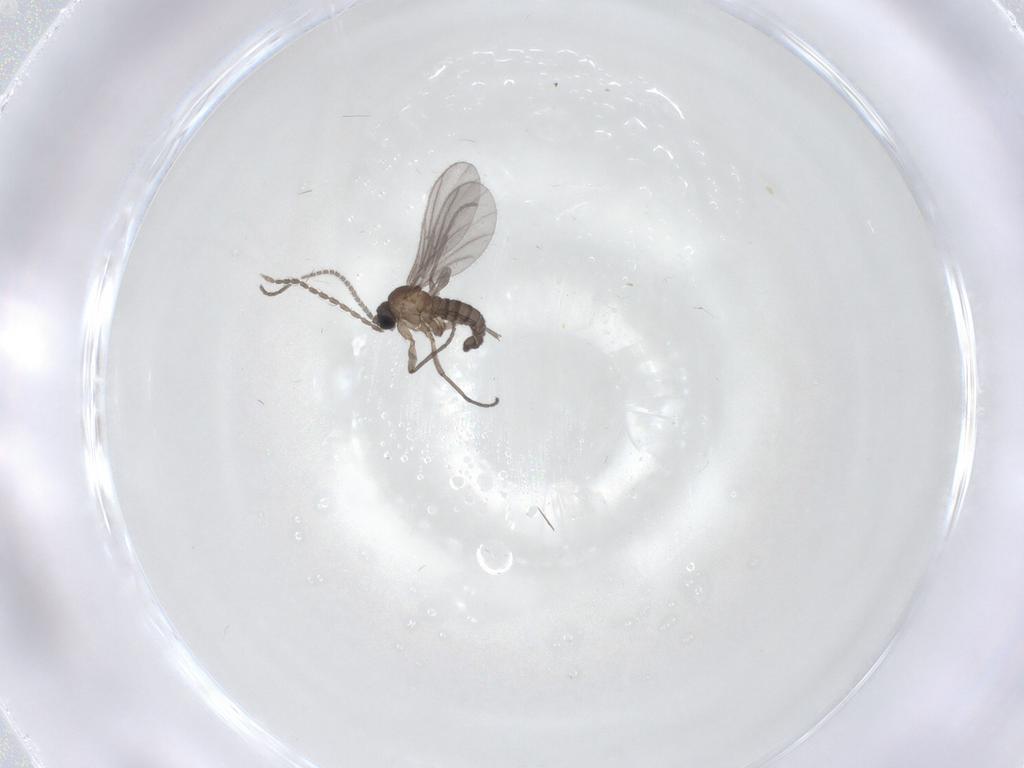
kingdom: Animalia
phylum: Arthropoda
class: Insecta
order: Diptera
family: Sciaridae
